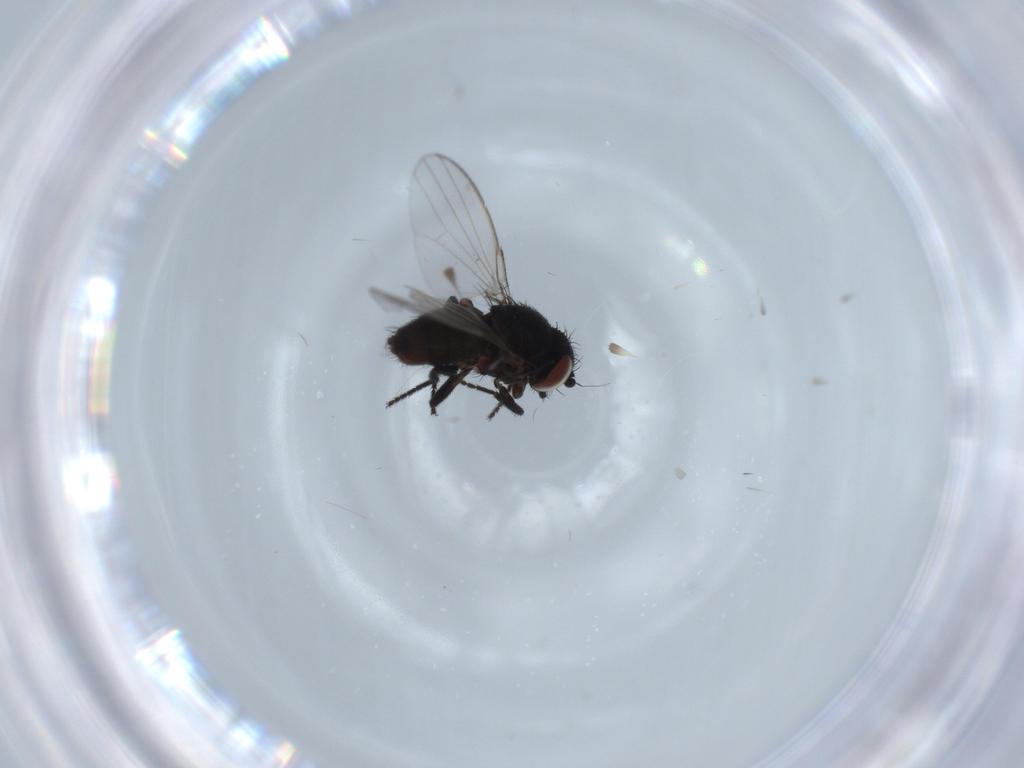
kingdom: Animalia
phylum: Arthropoda
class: Insecta
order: Diptera
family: Milichiidae
